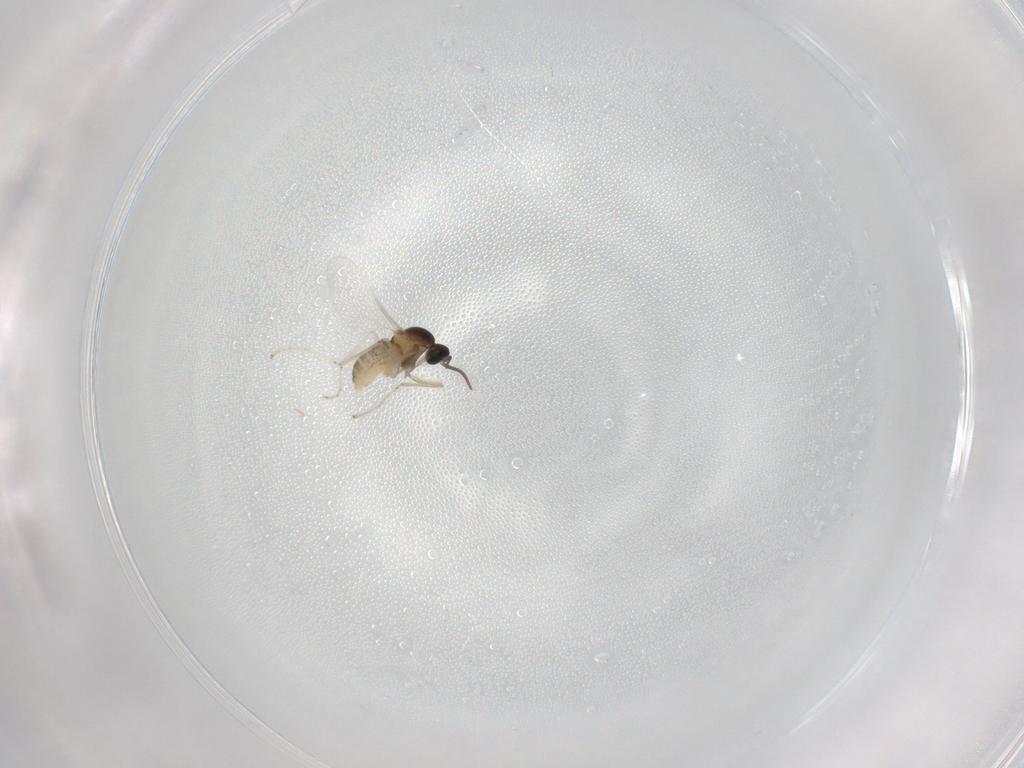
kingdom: Animalia
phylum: Arthropoda
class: Insecta
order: Diptera
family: Cecidomyiidae
